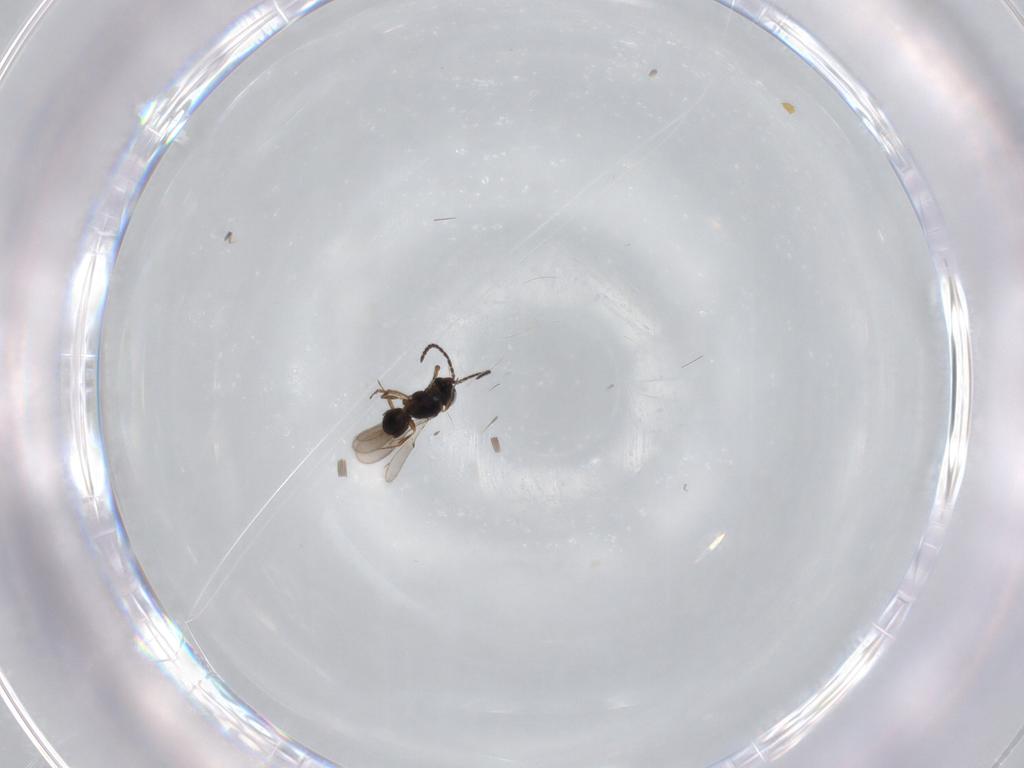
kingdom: Animalia
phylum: Arthropoda
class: Insecta
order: Hymenoptera
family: Scelionidae
